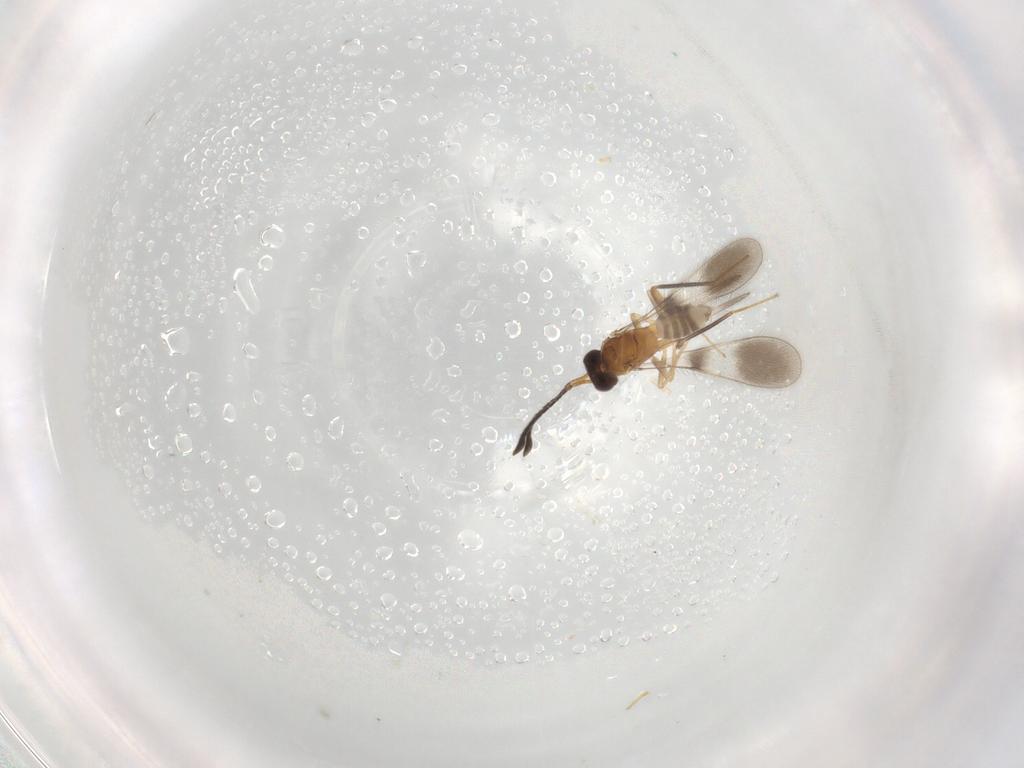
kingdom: Animalia
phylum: Arthropoda
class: Insecta
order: Hymenoptera
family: Mymaridae
